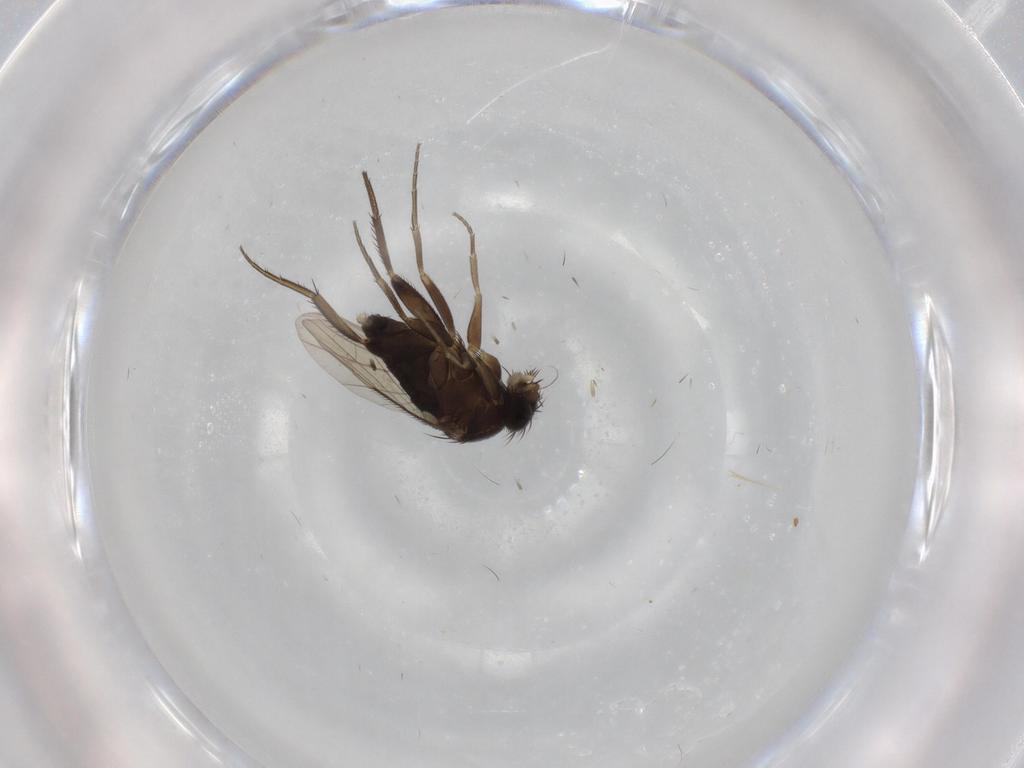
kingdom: Animalia
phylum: Arthropoda
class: Insecta
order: Diptera
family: Phoridae
